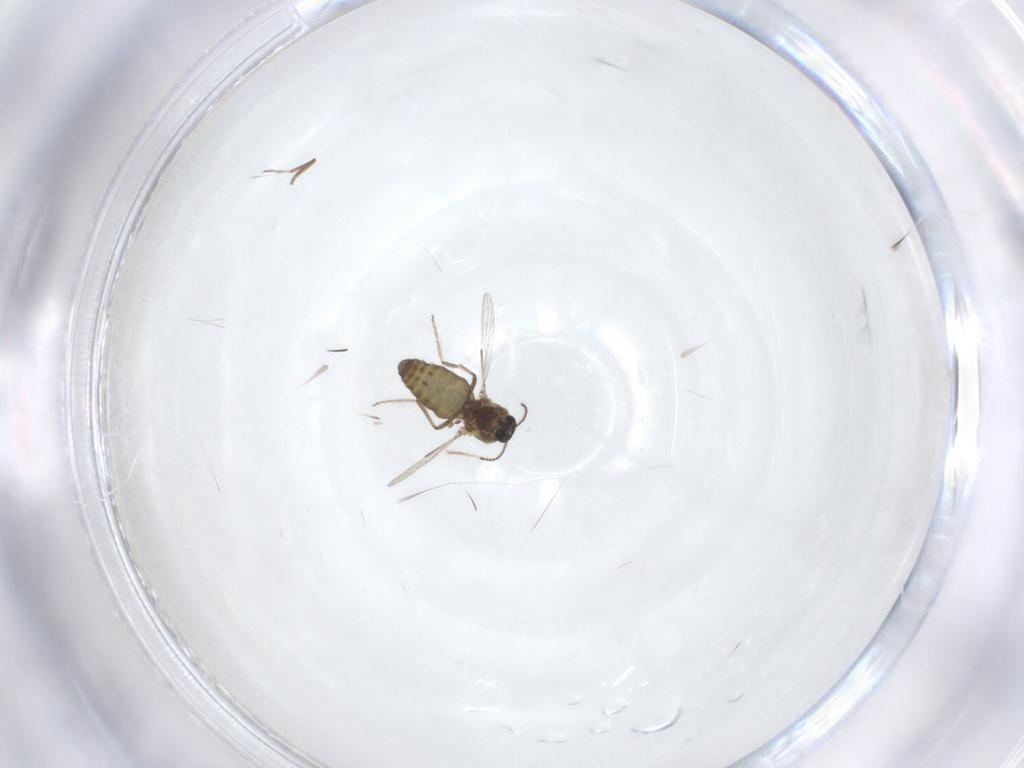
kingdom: Animalia
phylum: Arthropoda
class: Insecta
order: Diptera
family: Ceratopogonidae
